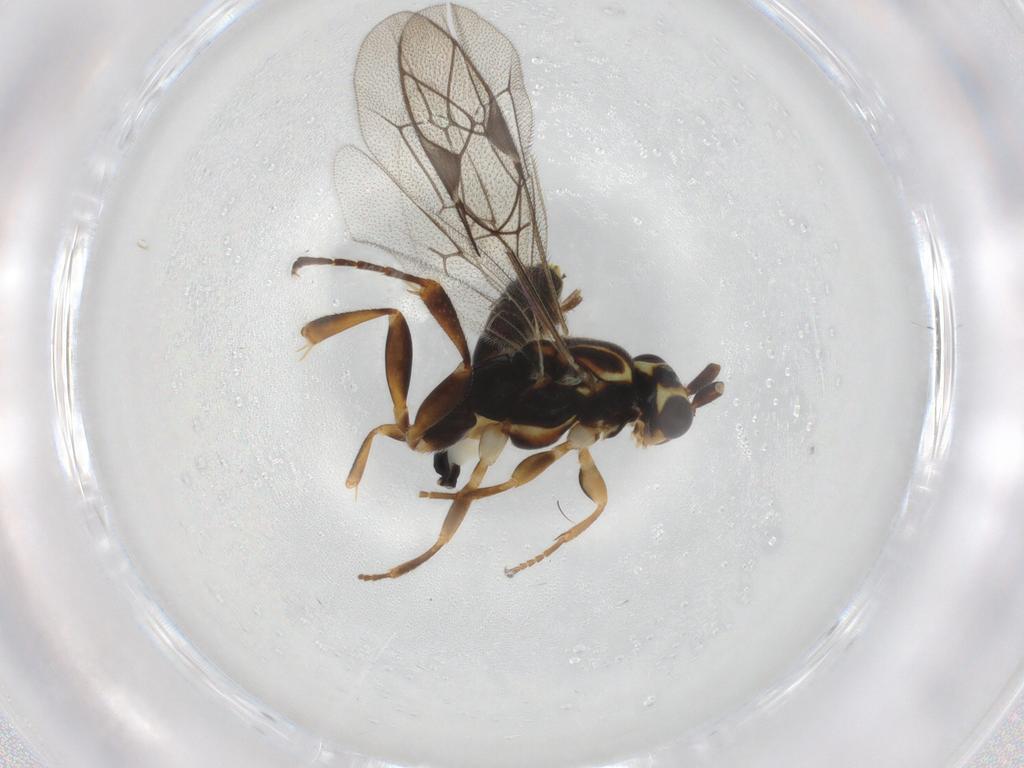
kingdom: Animalia
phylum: Arthropoda
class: Insecta
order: Hymenoptera
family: Ichneumonidae
